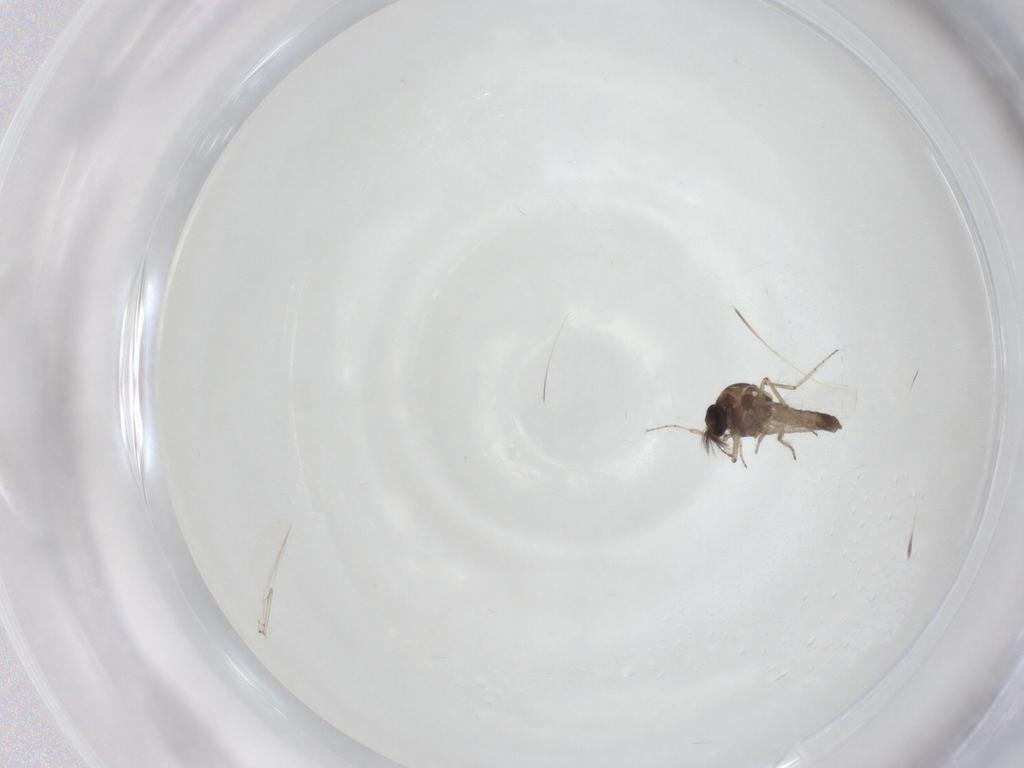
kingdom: Animalia
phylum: Arthropoda
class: Insecta
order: Diptera
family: Ceratopogonidae
